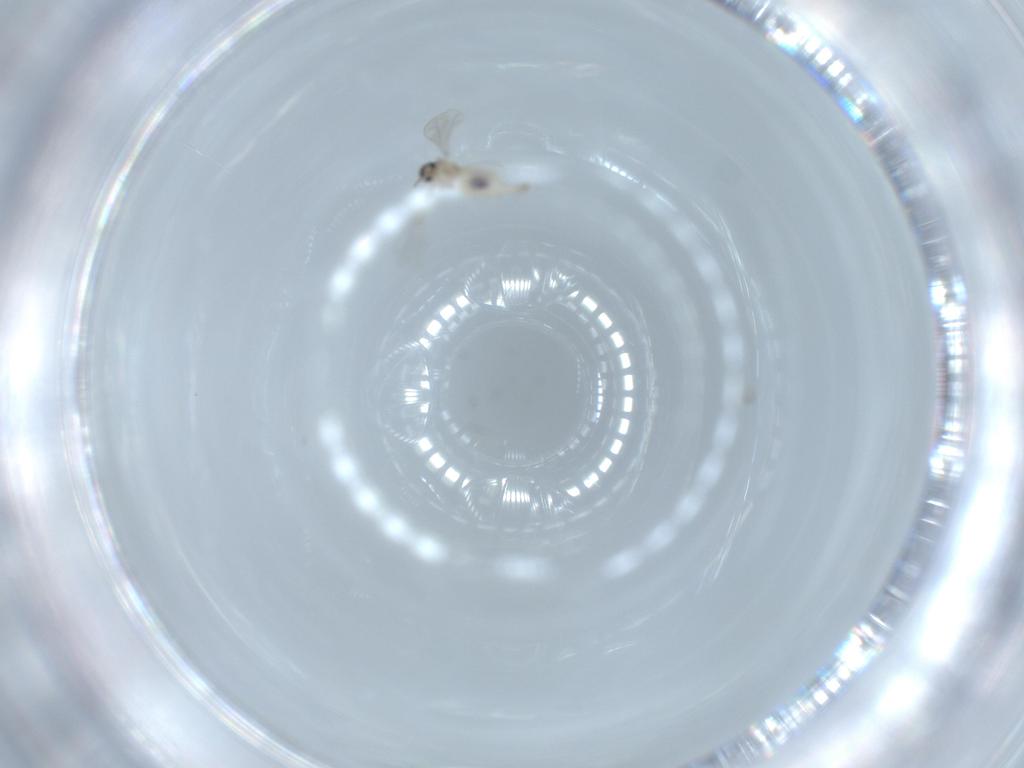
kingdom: Animalia
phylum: Arthropoda
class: Insecta
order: Diptera
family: Cecidomyiidae
